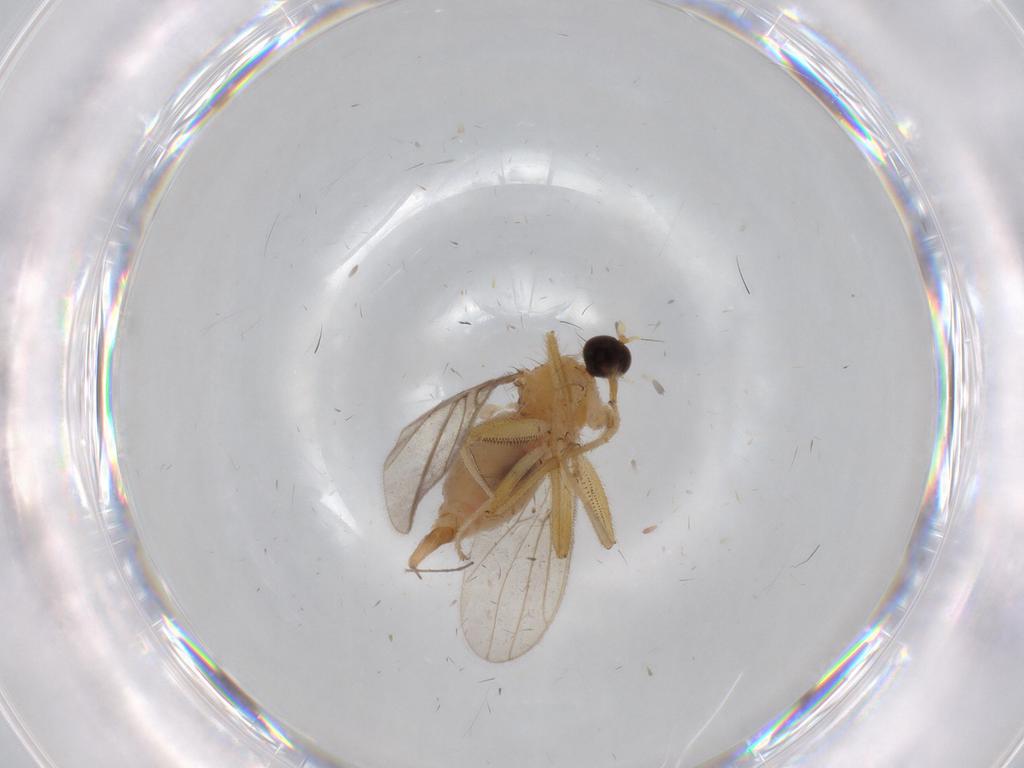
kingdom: Animalia
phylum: Arthropoda
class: Insecta
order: Diptera
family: Hybotidae
